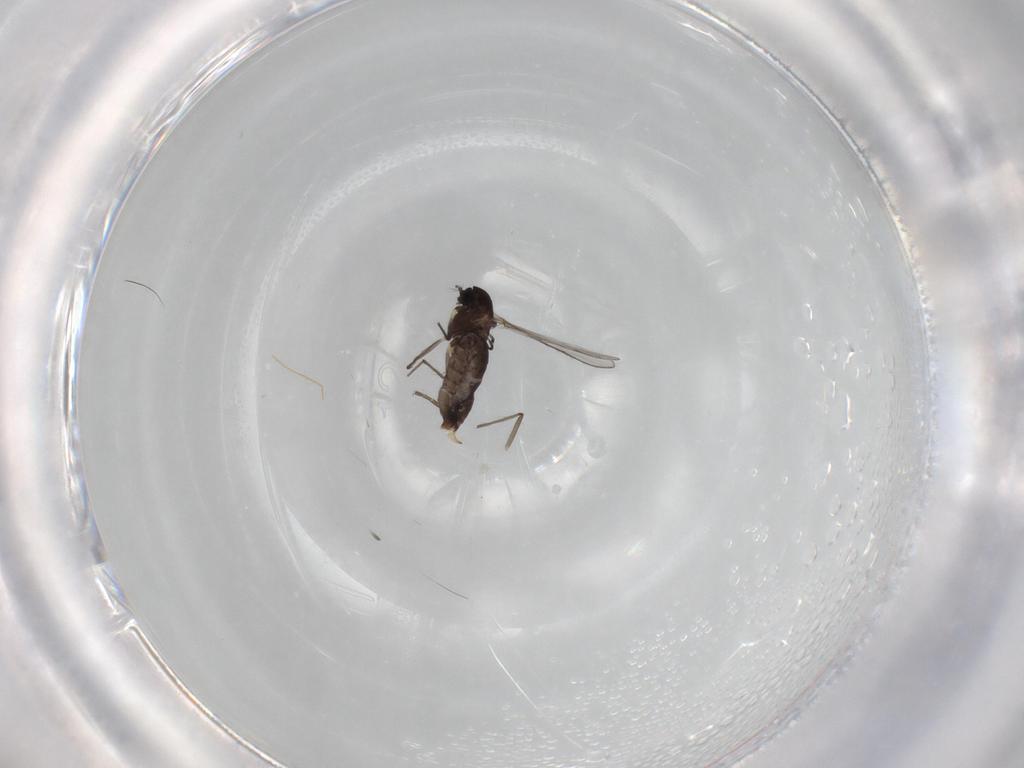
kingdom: Animalia
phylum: Arthropoda
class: Insecta
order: Diptera
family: Chironomidae
